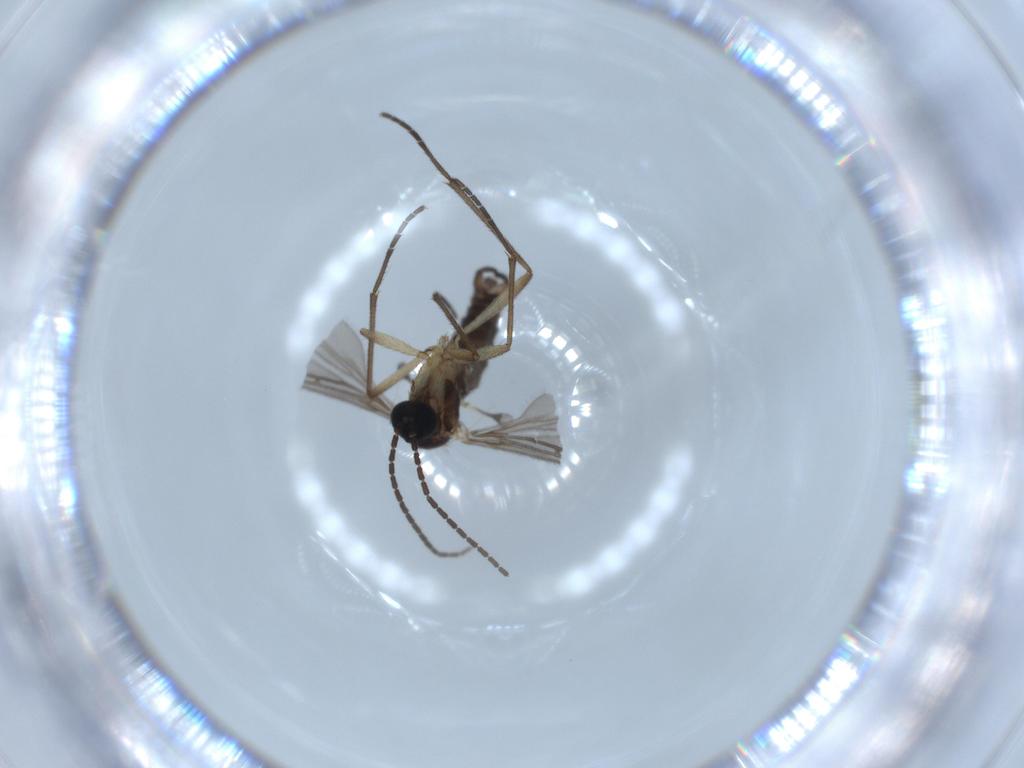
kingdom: Animalia
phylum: Arthropoda
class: Insecta
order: Diptera
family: Sciaridae
